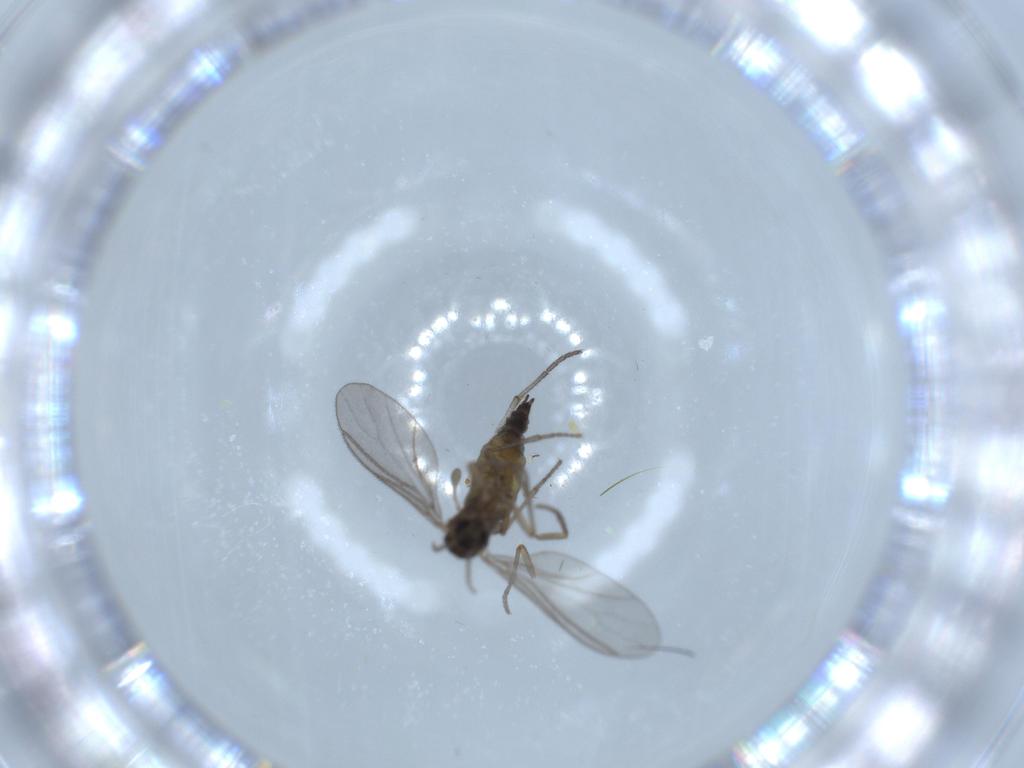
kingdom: Animalia
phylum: Arthropoda
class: Insecta
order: Diptera
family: Sciaridae
